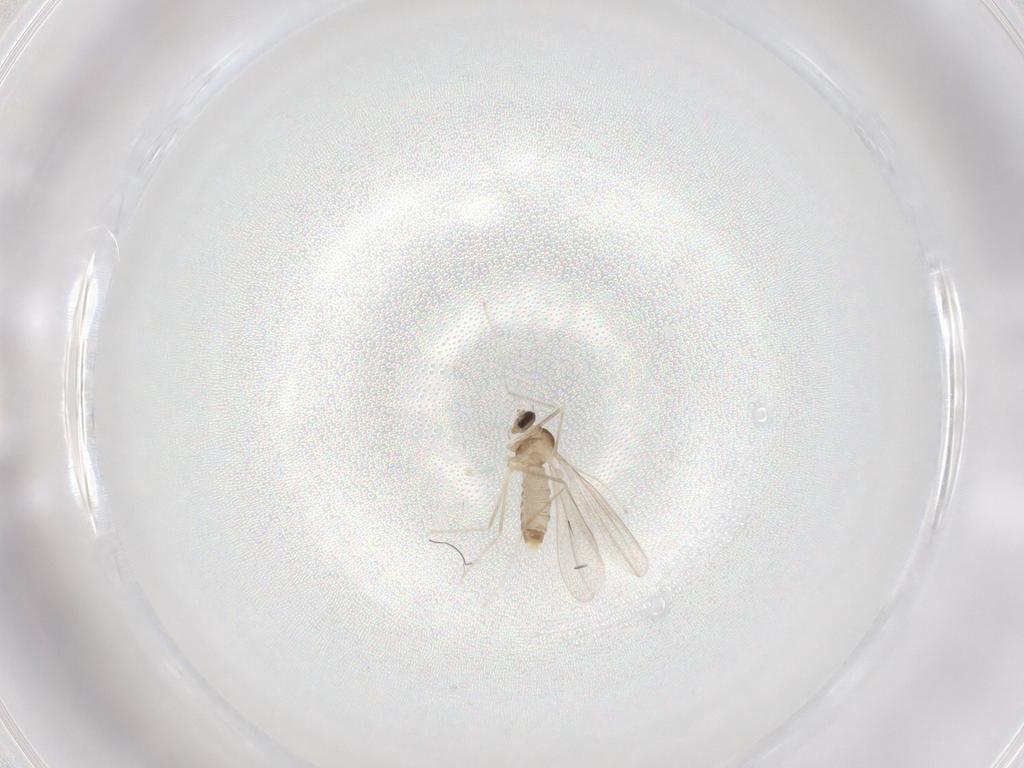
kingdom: Animalia
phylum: Arthropoda
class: Insecta
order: Diptera
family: Cecidomyiidae
